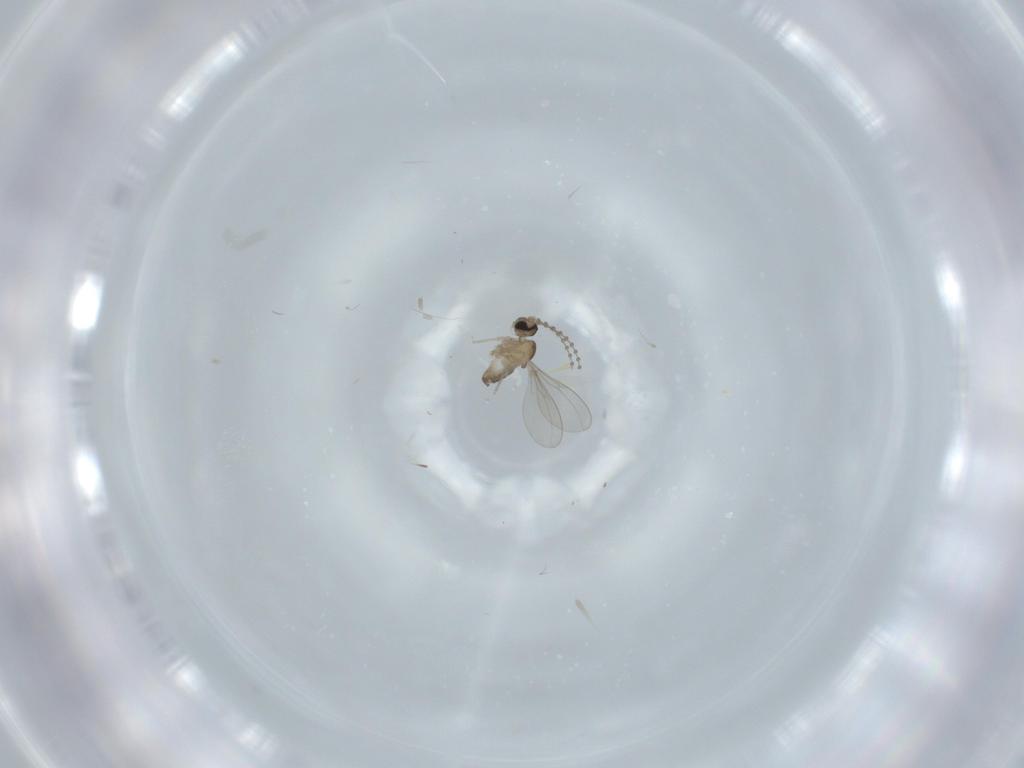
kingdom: Animalia
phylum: Arthropoda
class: Insecta
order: Diptera
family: Cecidomyiidae
